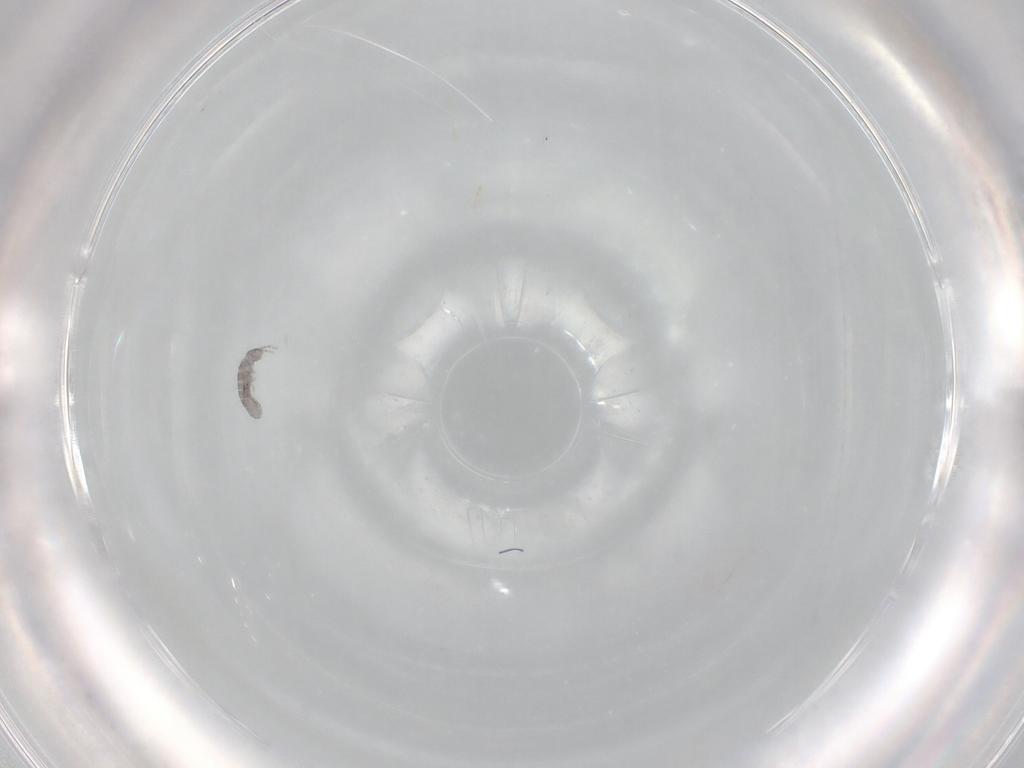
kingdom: Animalia
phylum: Arthropoda
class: Collembola
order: Entomobryomorpha
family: Isotomidae
